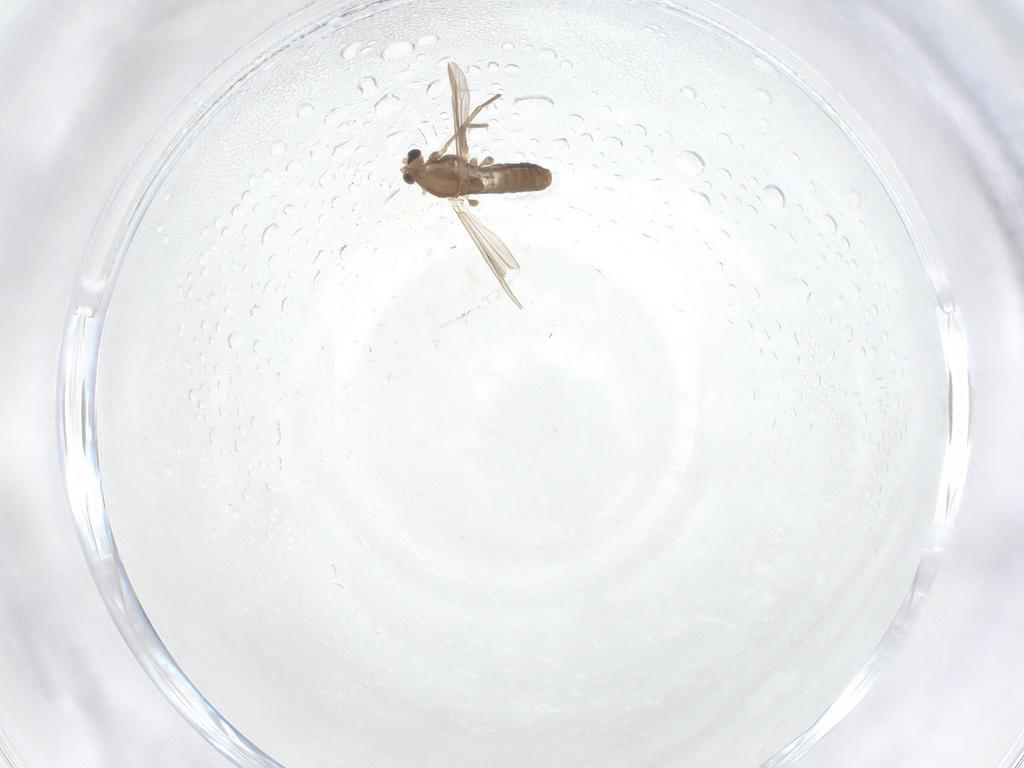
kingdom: Animalia
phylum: Arthropoda
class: Insecta
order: Diptera
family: Chironomidae
